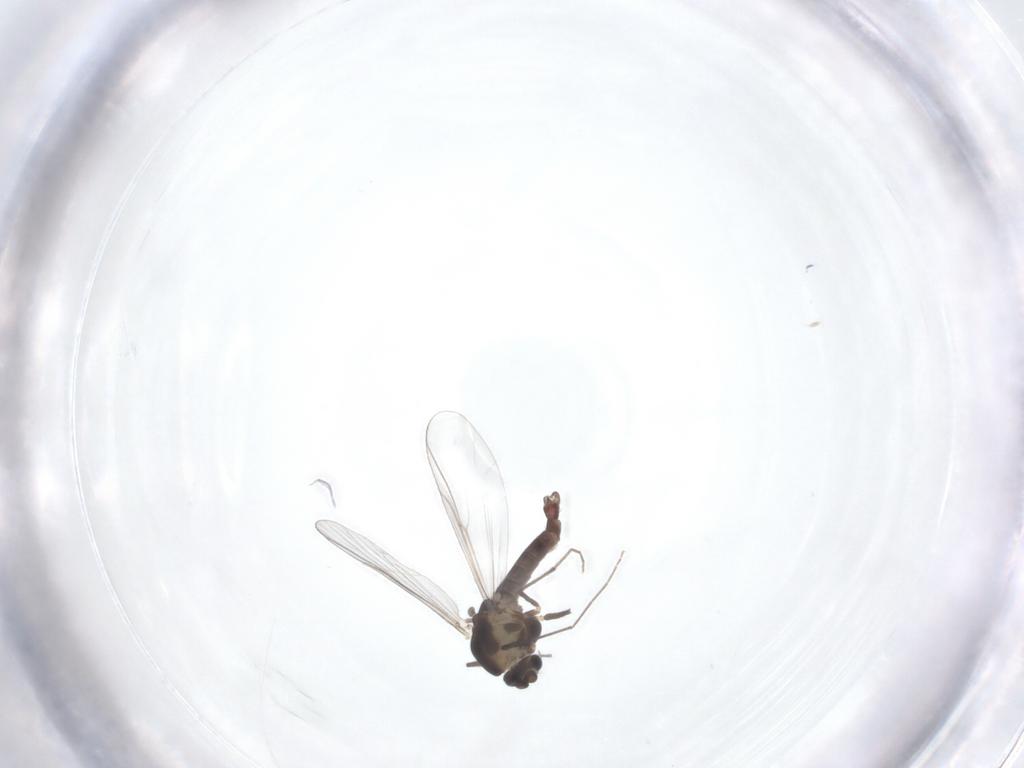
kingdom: Animalia
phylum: Arthropoda
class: Insecta
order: Diptera
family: Chironomidae
